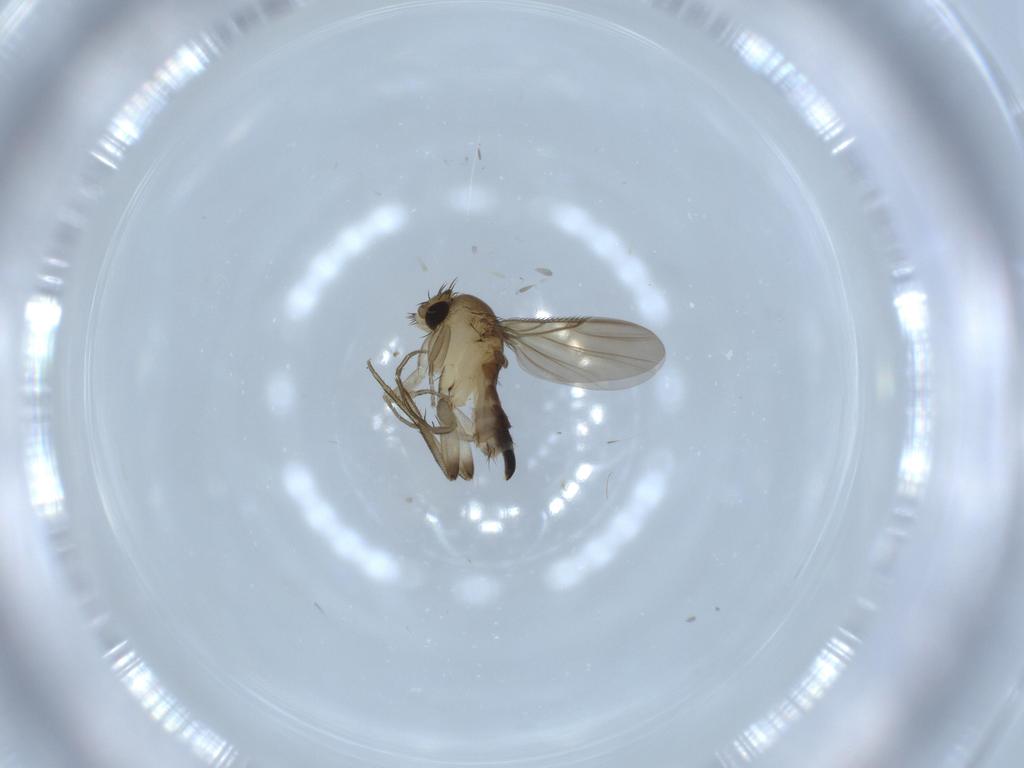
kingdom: Animalia
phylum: Arthropoda
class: Insecta
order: Diptera
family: Phoridae
